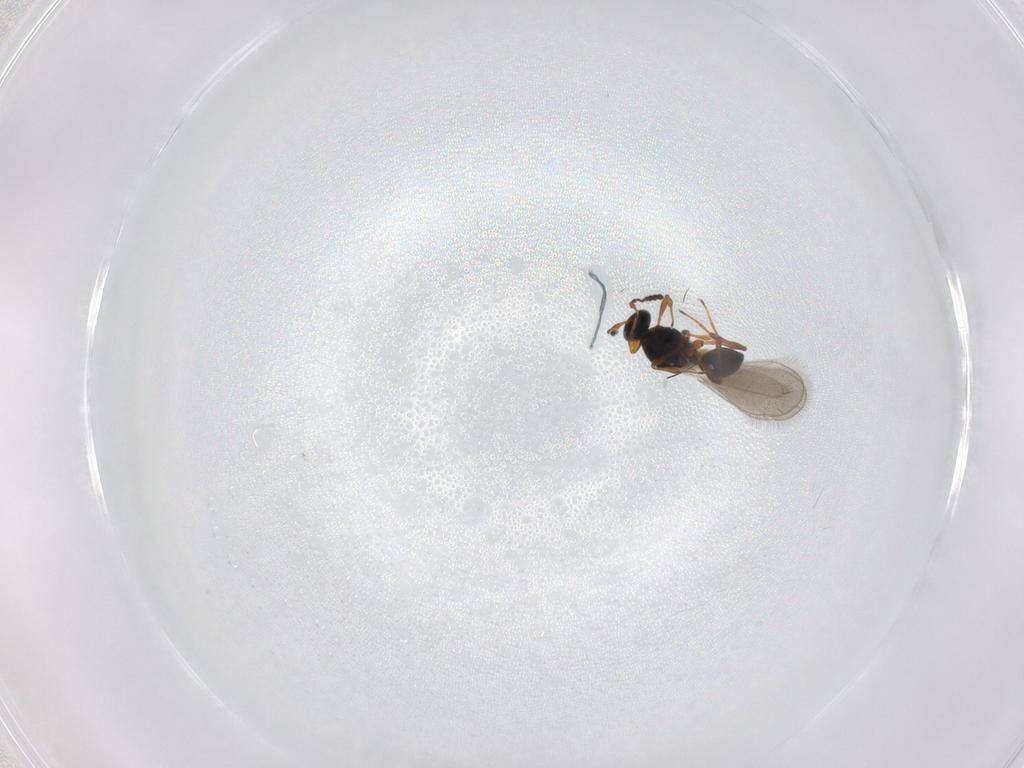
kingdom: Animalia
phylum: Arthropoda
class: Insecta
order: Hymenoptera
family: Platygastridae
